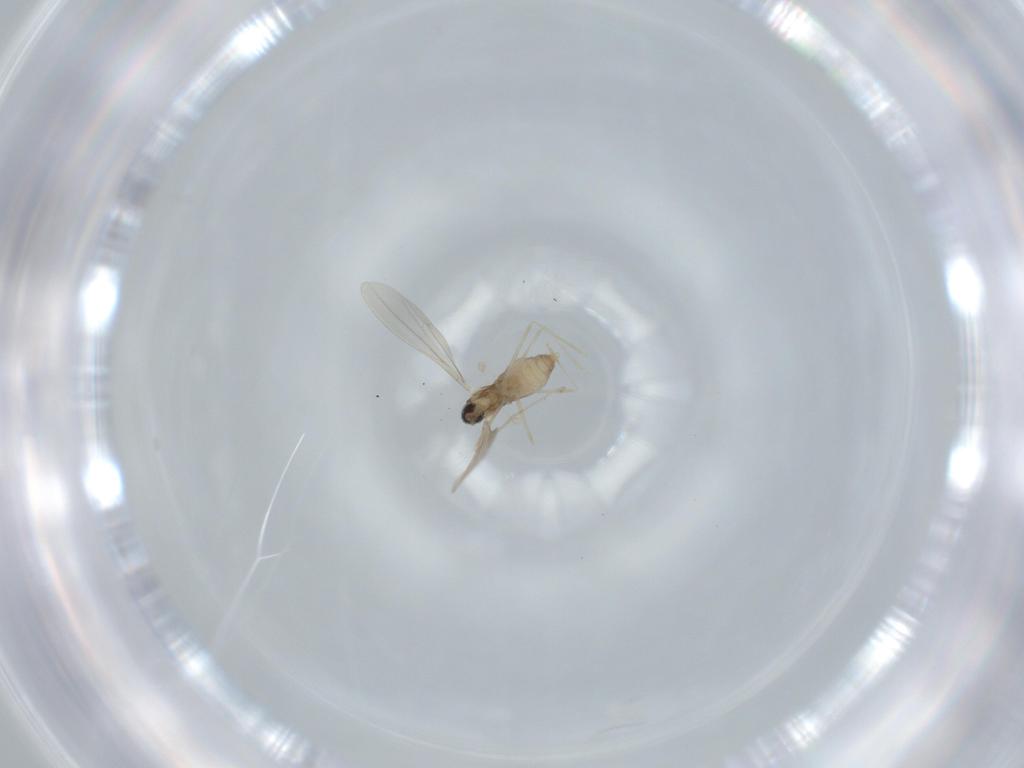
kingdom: Animalia
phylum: Arthropoda
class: Insecta
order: Diptera
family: Cecidomyiidae
